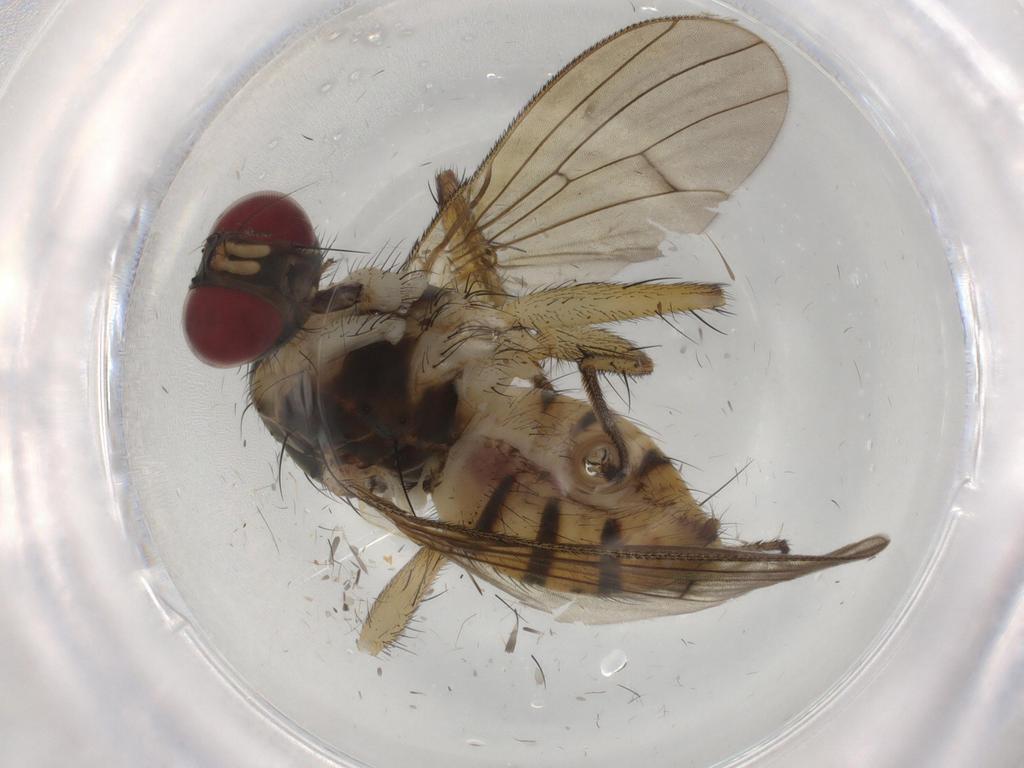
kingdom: Animalia
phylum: Arthropoda
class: Insecta
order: Diptera
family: Muscidae
